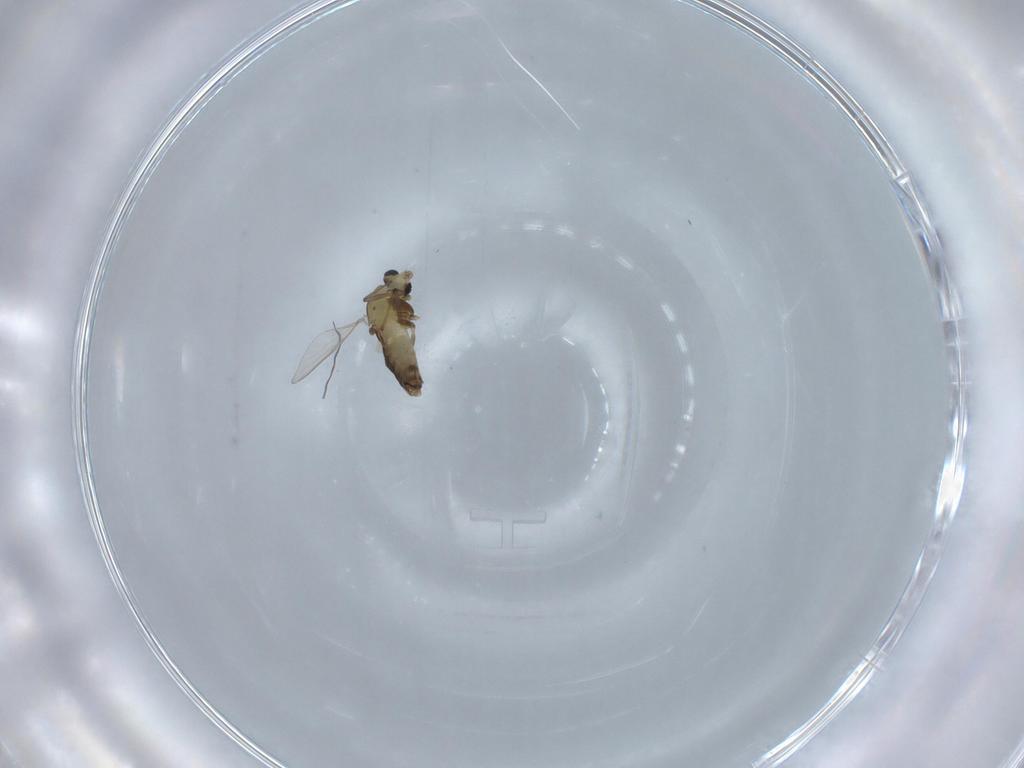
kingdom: Animalia
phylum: Arthropoda
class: Insecta
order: Diptera
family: Chironomidae
